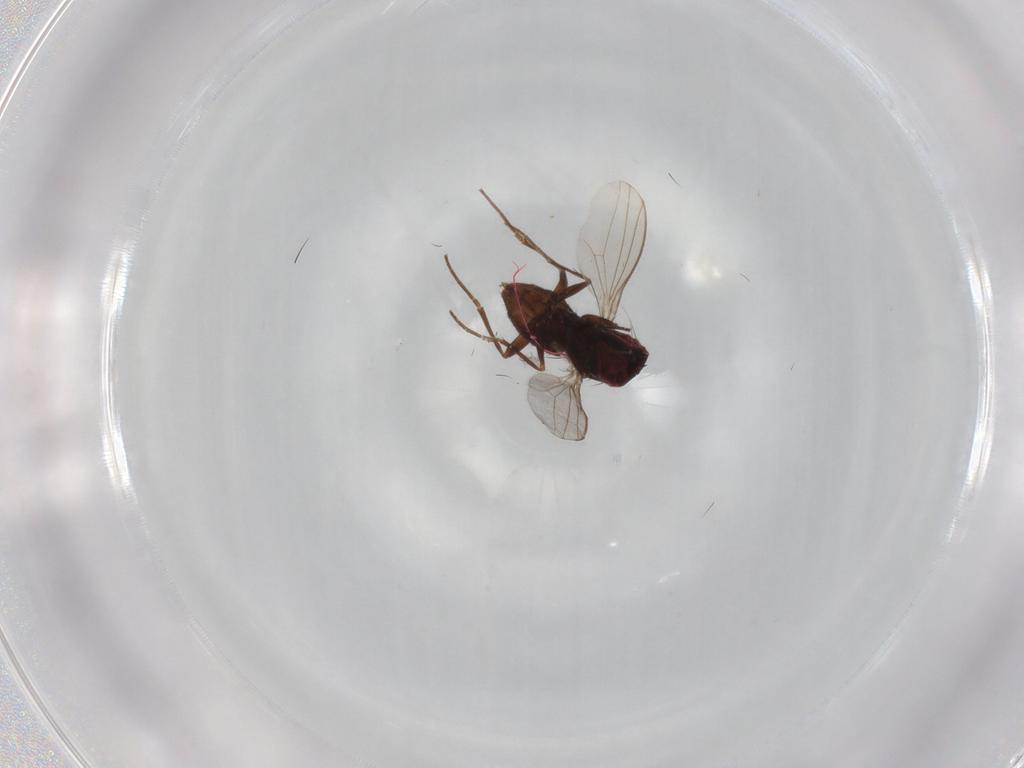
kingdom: Animalia
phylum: Arthropoda
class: Insecta
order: Diptera
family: Dolichopodidae
